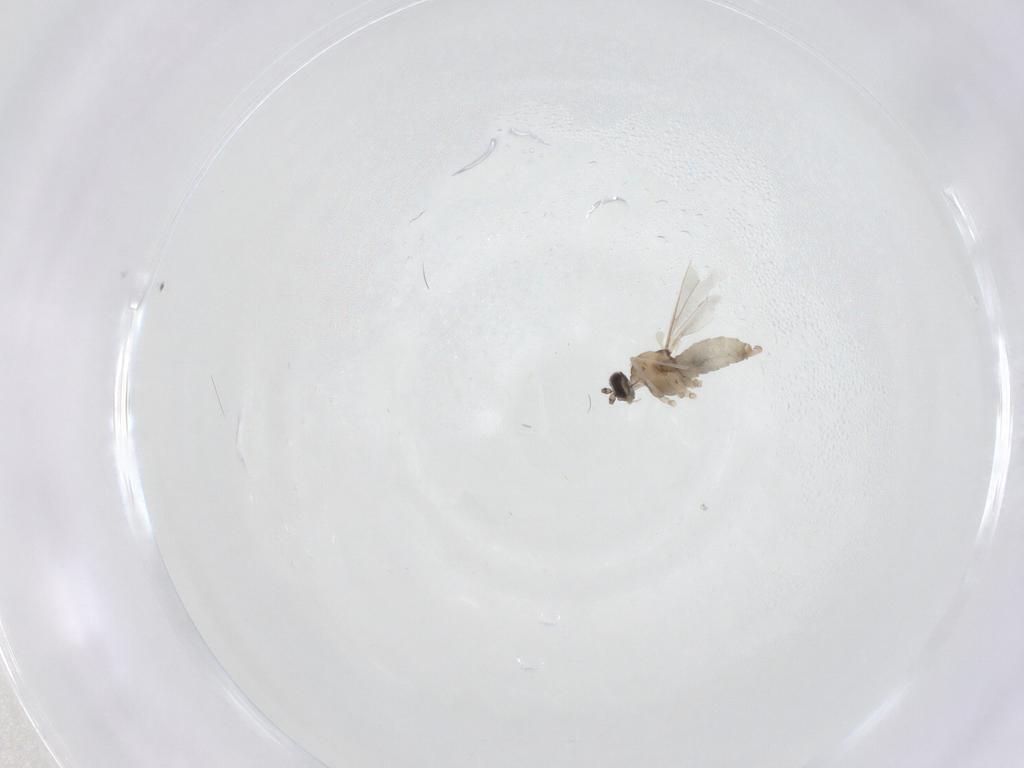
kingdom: Animalia
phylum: Arthropoda
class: Insecta
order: Diptera
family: Cecidomyiidae
